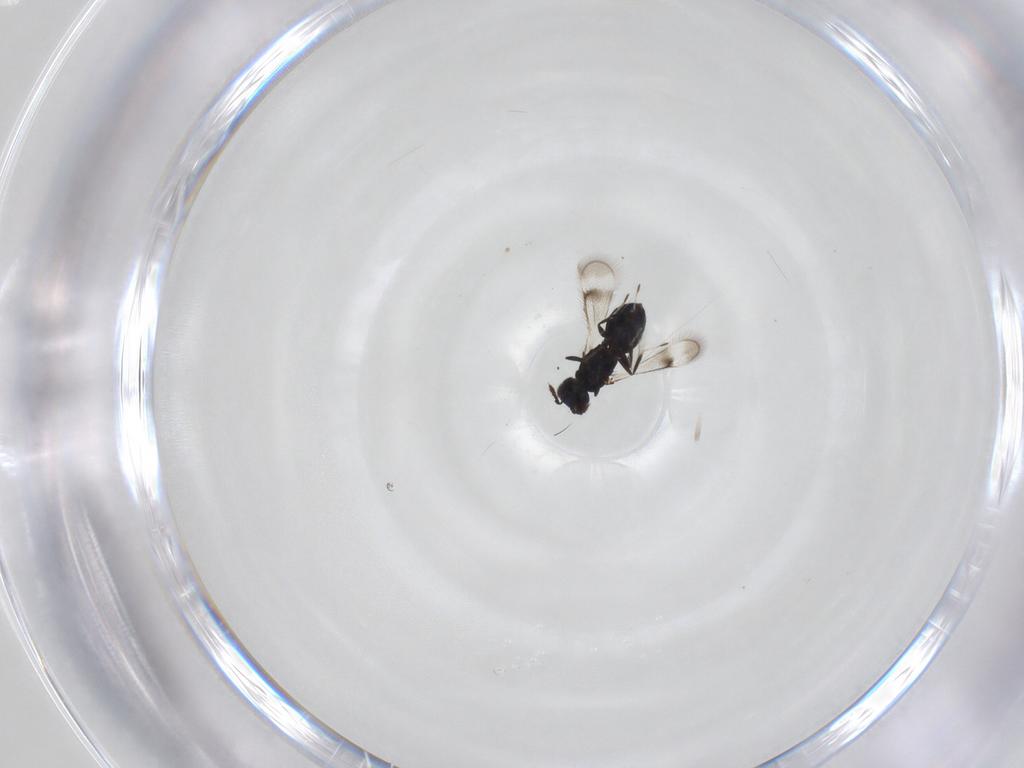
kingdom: Animalia
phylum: Arthropoda
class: Insecta
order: Hymenoptera
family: Eulophidae
